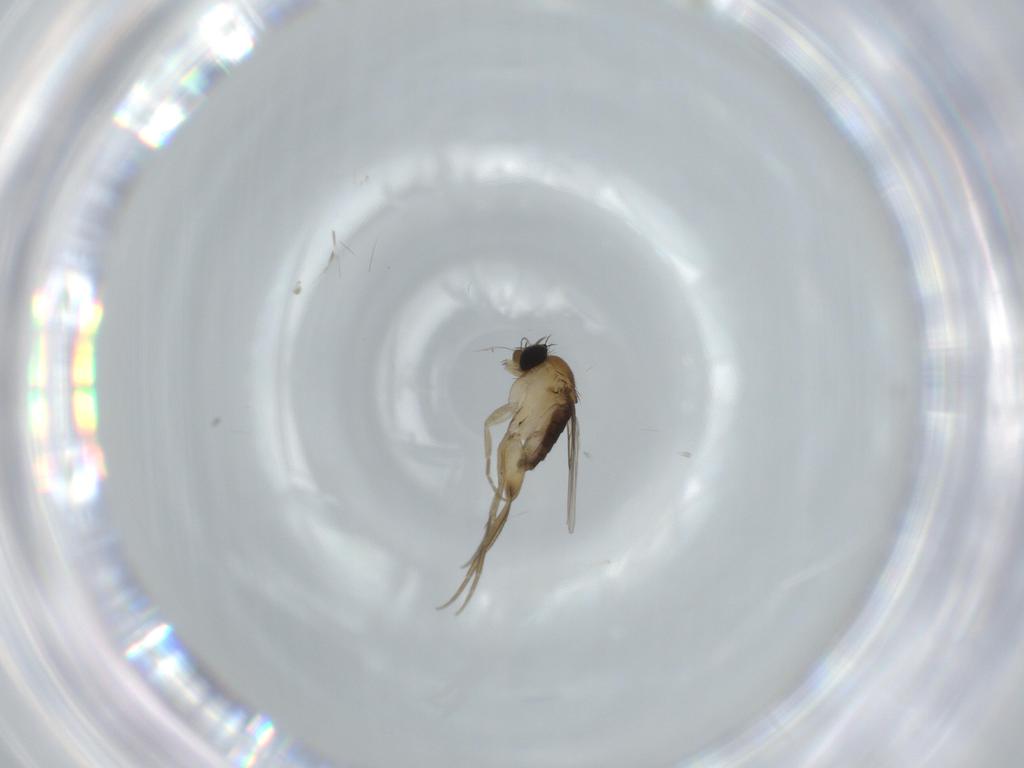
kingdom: Animalia
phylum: Arthropoda
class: Insecta
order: Diptera
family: Phoridae
